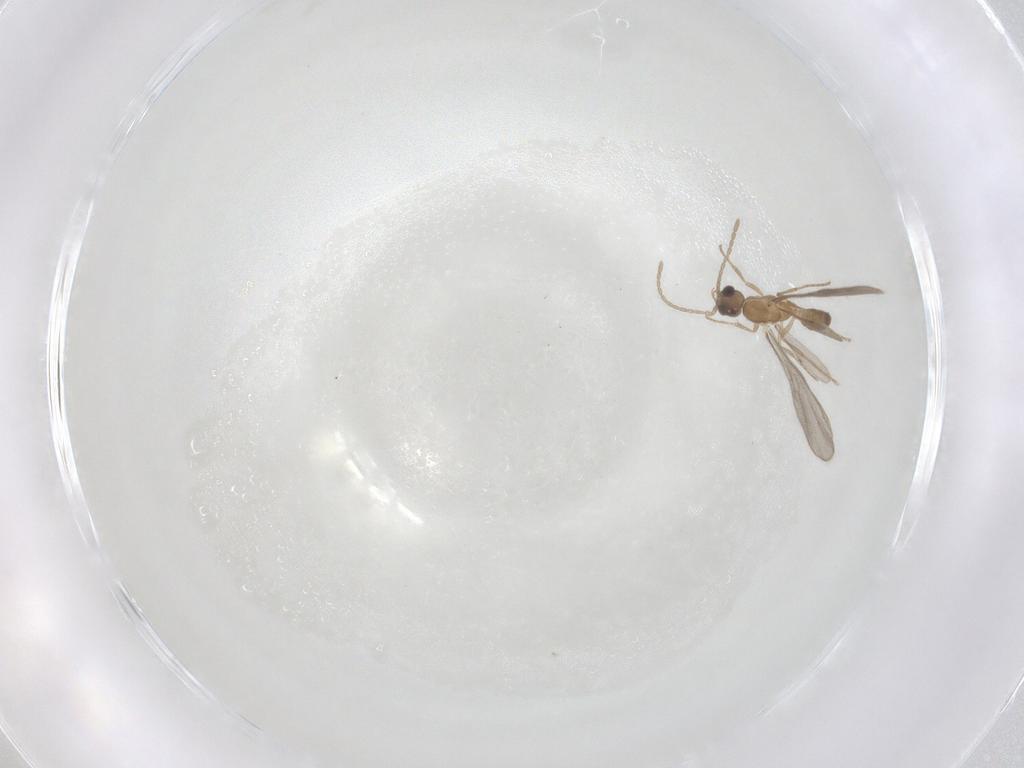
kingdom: Animalia
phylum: Arthropoda
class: Insecta
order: Hymenoptera
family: Formicidae
